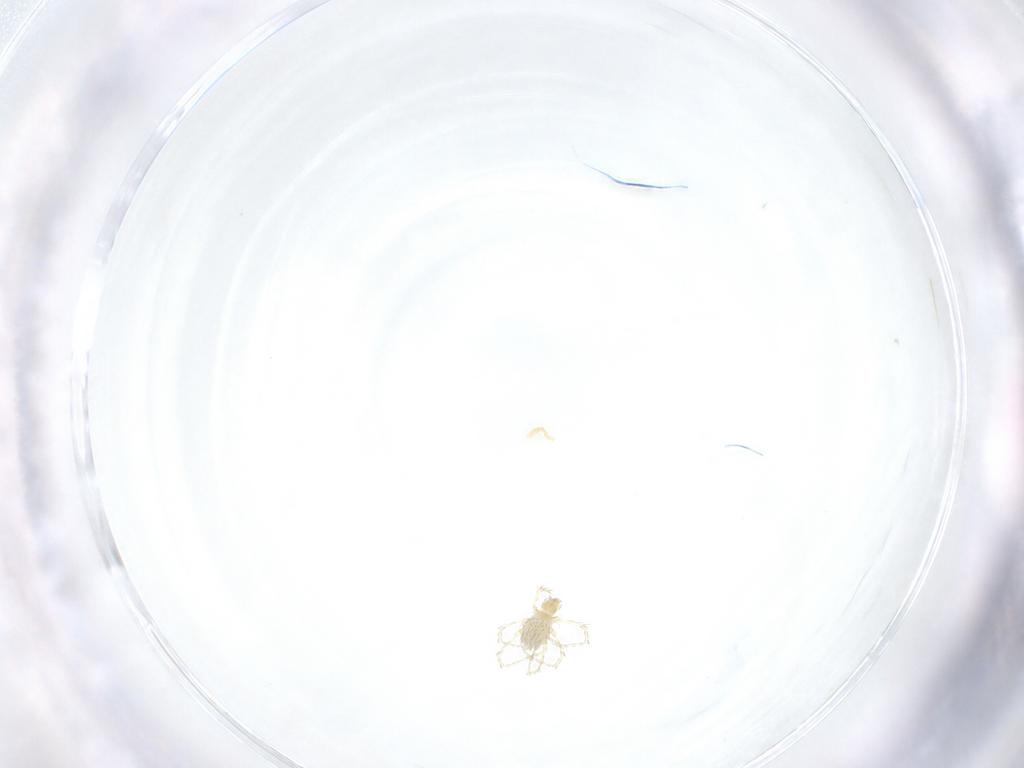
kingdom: Animalia
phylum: Arthropoda
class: Arachnida
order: Trombidiformes
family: Erythraeidae
